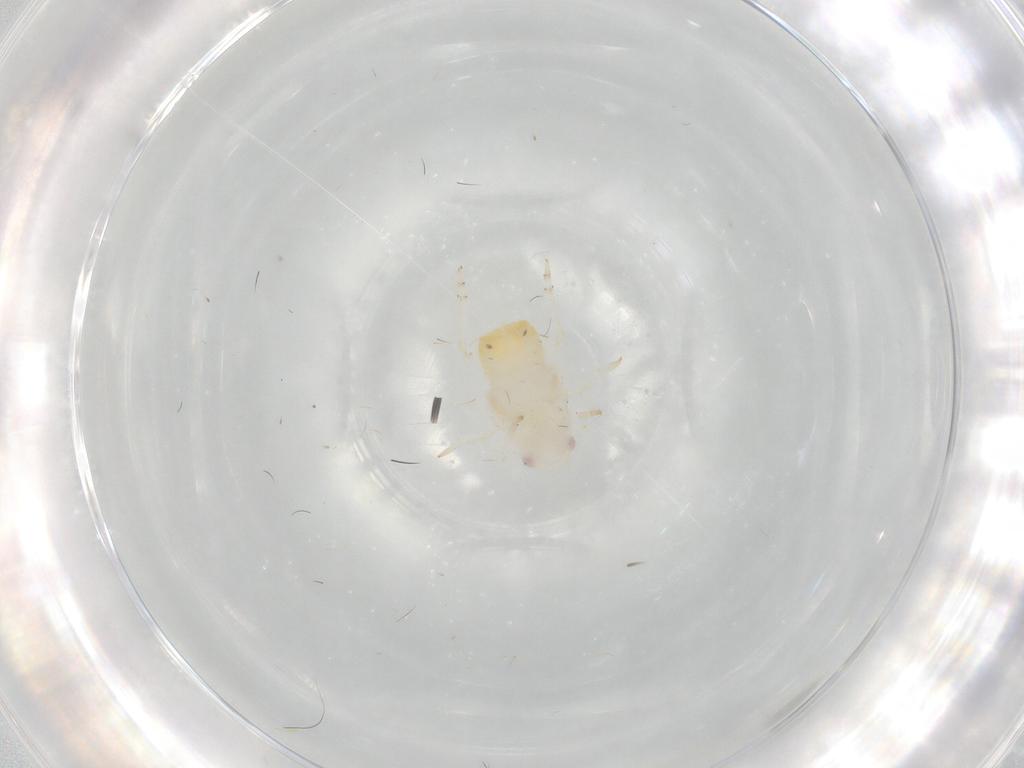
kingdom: Animalia
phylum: Arthropoda
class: Insecta
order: Hemiptera
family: Flatidae
